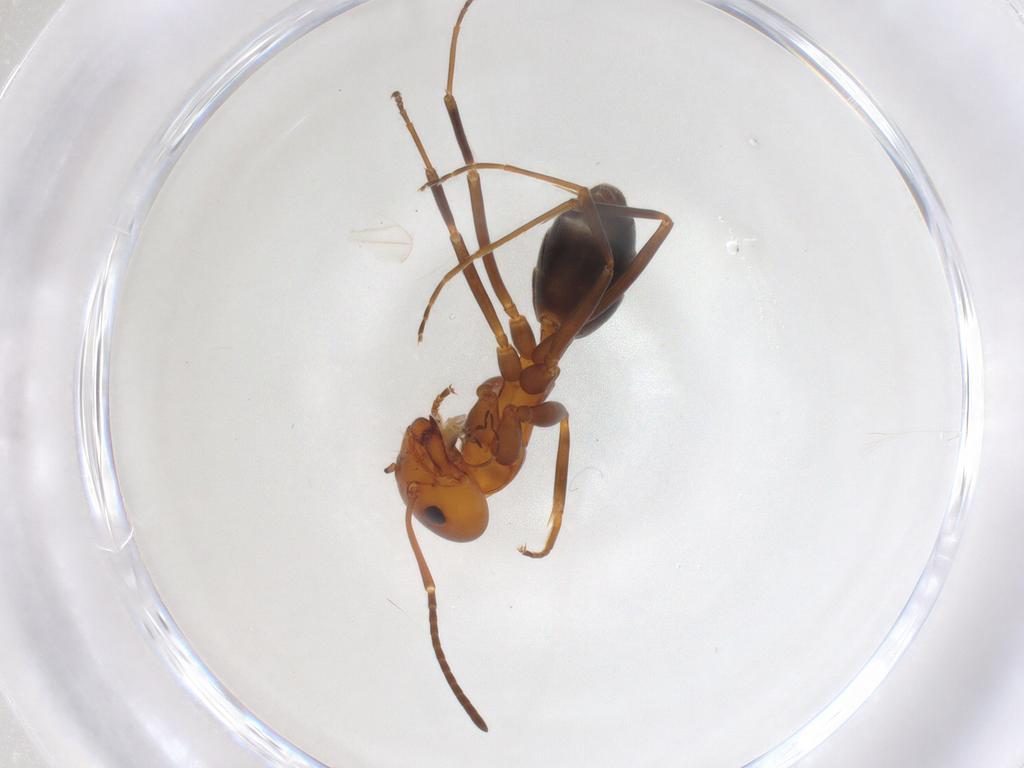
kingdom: Animalia
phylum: Arthropoda
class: Insecta
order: Hymenoptera
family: Formicidae
